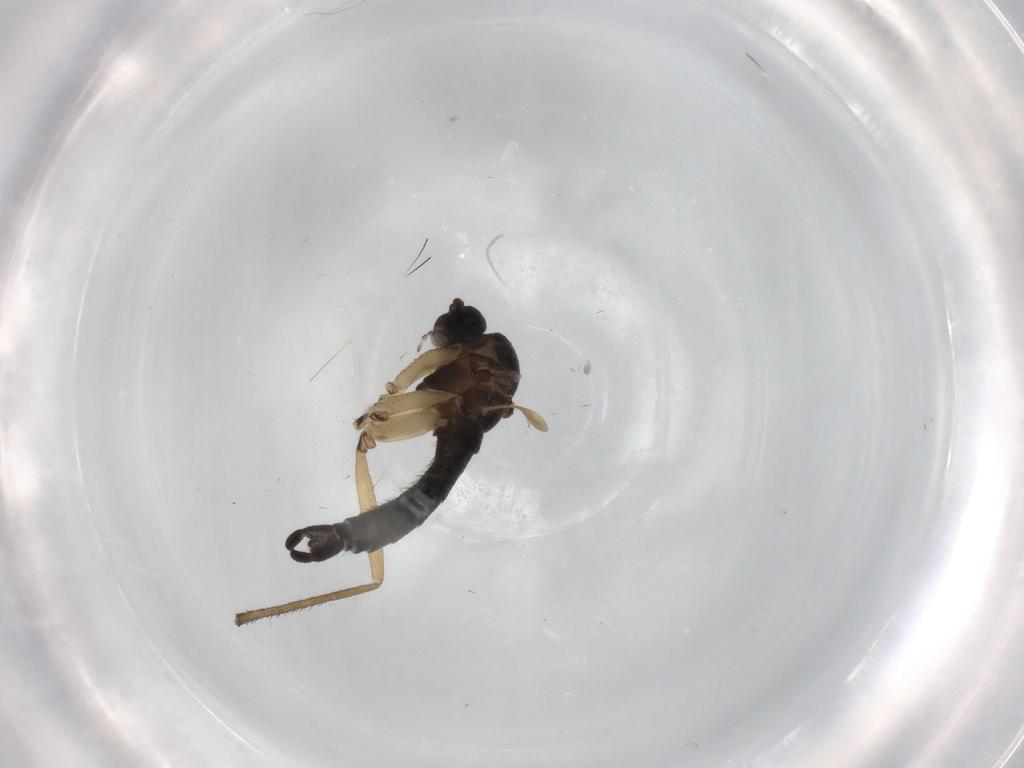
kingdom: Animalia
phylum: Arthropoda
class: Insecta
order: Diptera
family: Sciaridae
